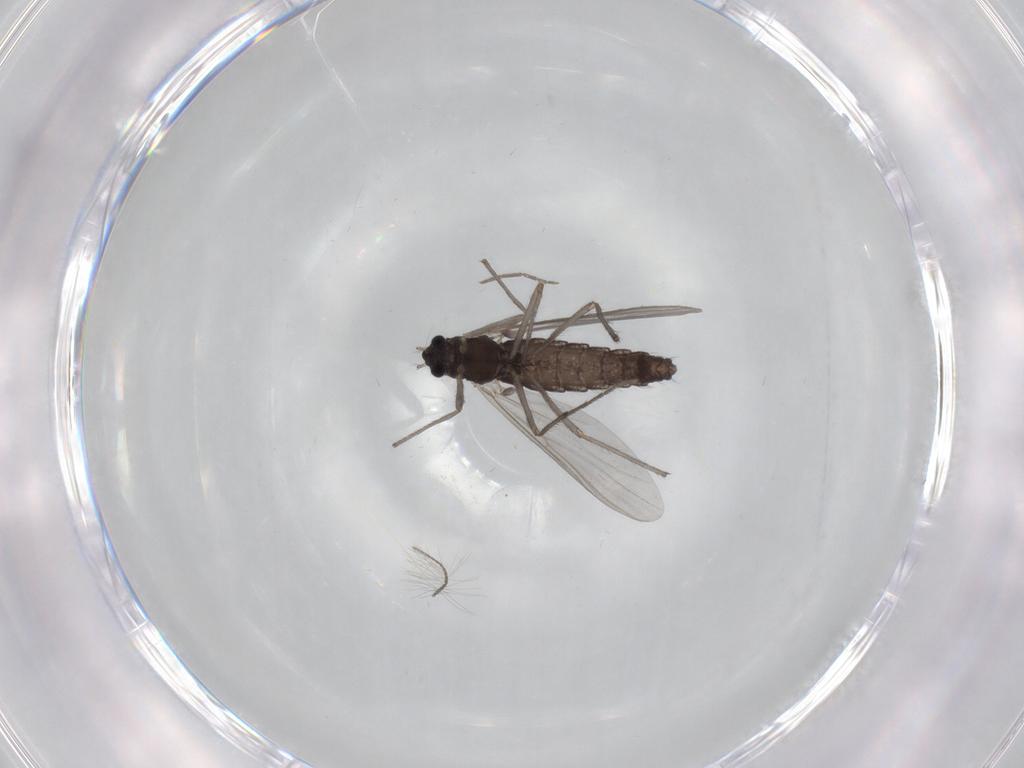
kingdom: Animalia
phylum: Arthropoda
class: Insecta
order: Diptera
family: Chironomidae
